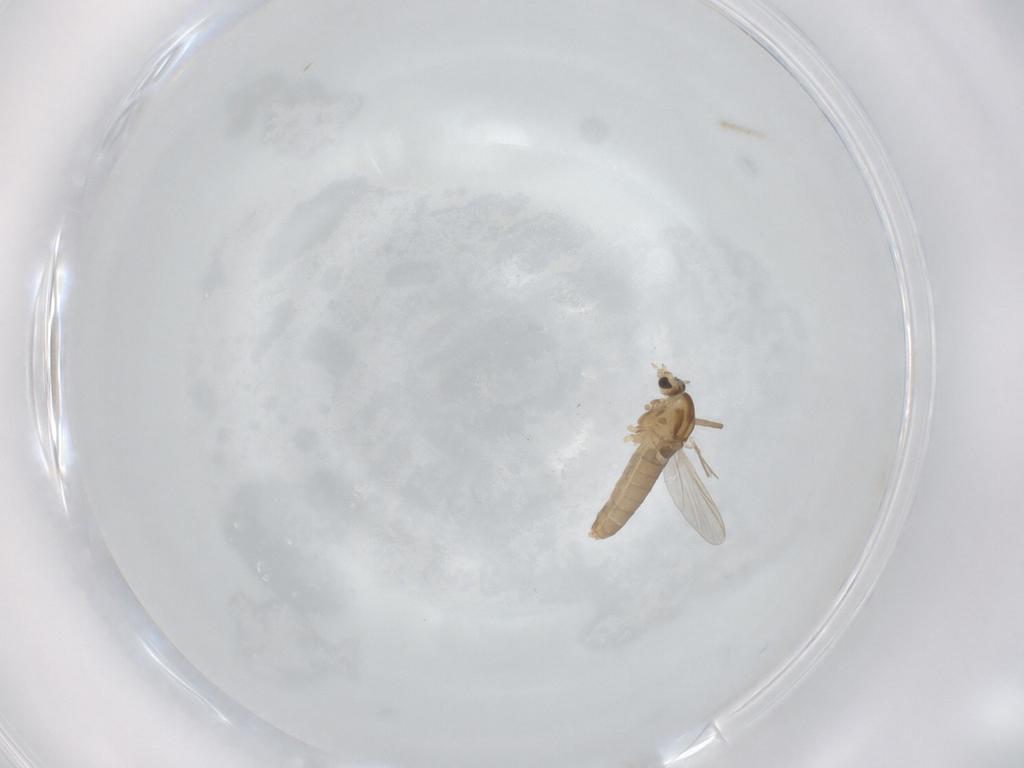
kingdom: Animalia
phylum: Arthropoda
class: Insecta
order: Diptera
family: Chironomidae
